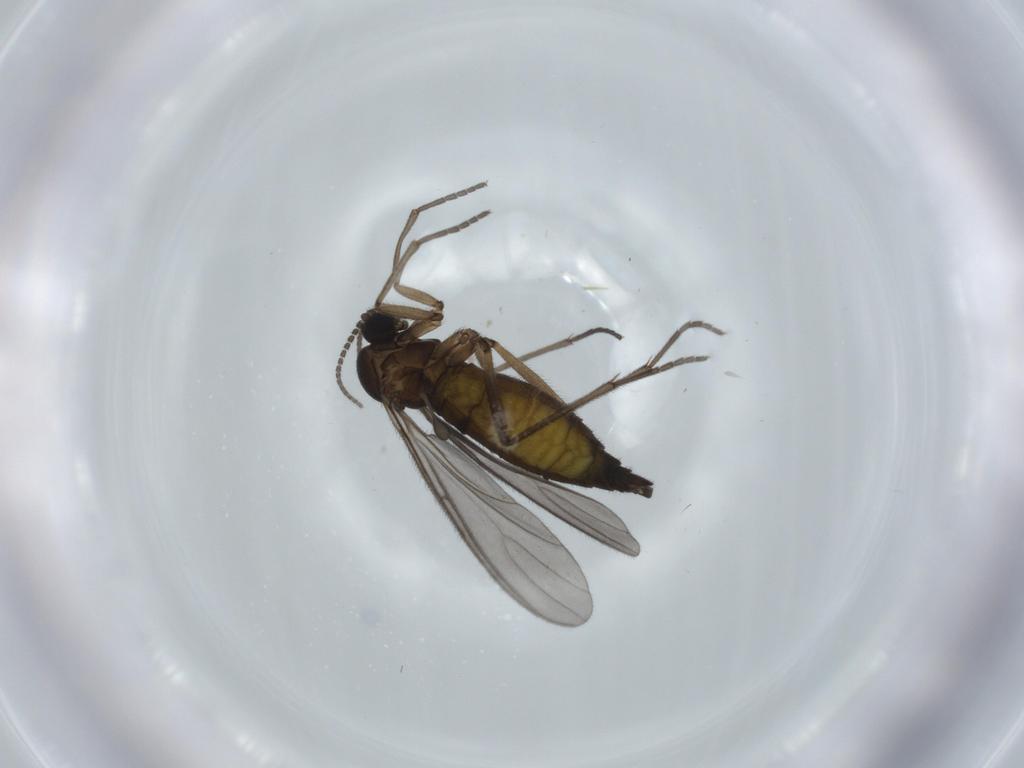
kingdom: Animalia
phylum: Arthropoda
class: Insecta
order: Diptera
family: Sciaridae
